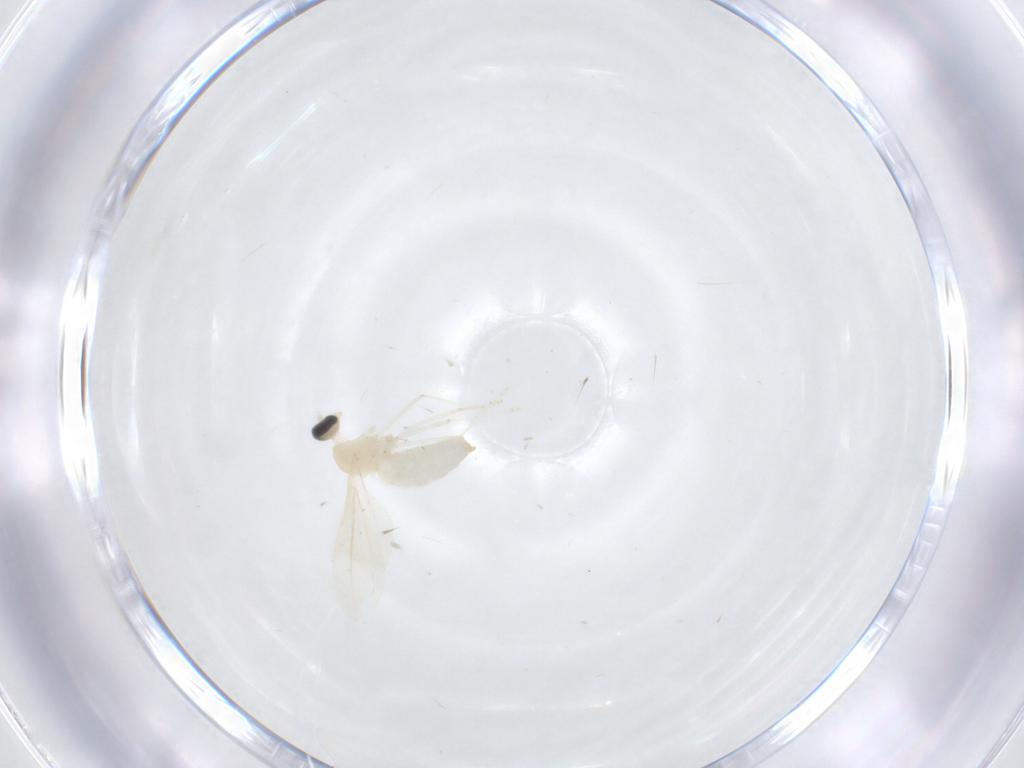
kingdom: Animalia
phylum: Arthropoda
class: Insecta
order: Diptera
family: Cecidomyiidae
